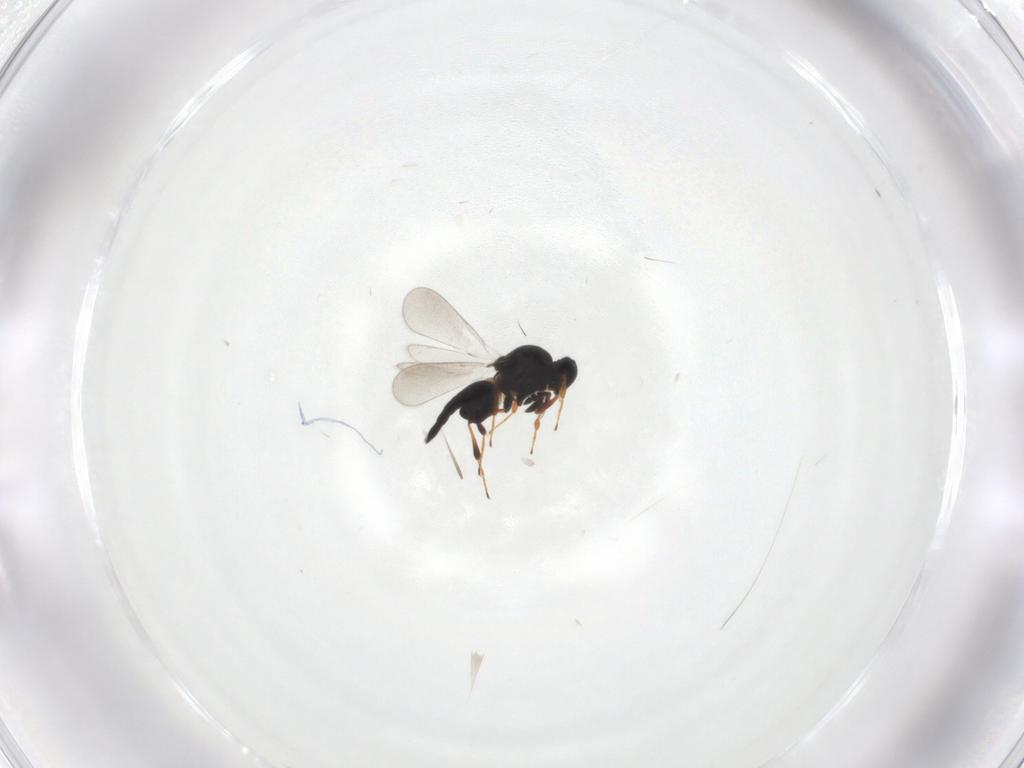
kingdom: Animalia
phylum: Arthropoda
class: Insecta
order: Hymenoptera
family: Platygastridae
